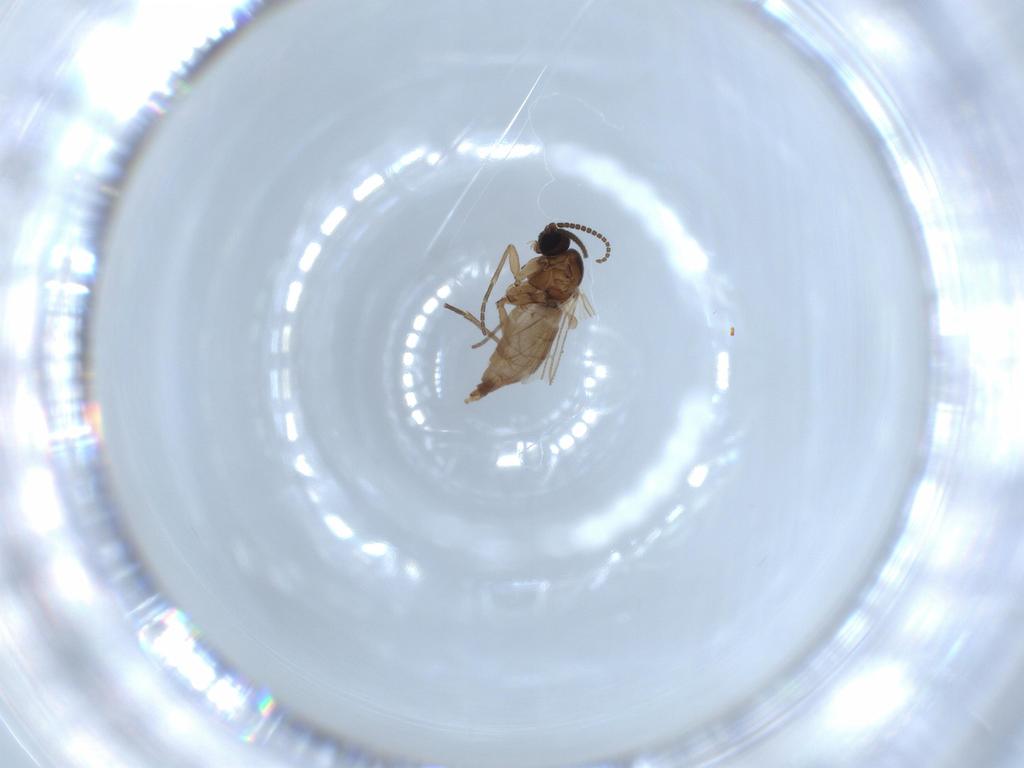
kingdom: Animalia
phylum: Arthropoda
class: Insecta
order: Diptera
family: Sciaridae
